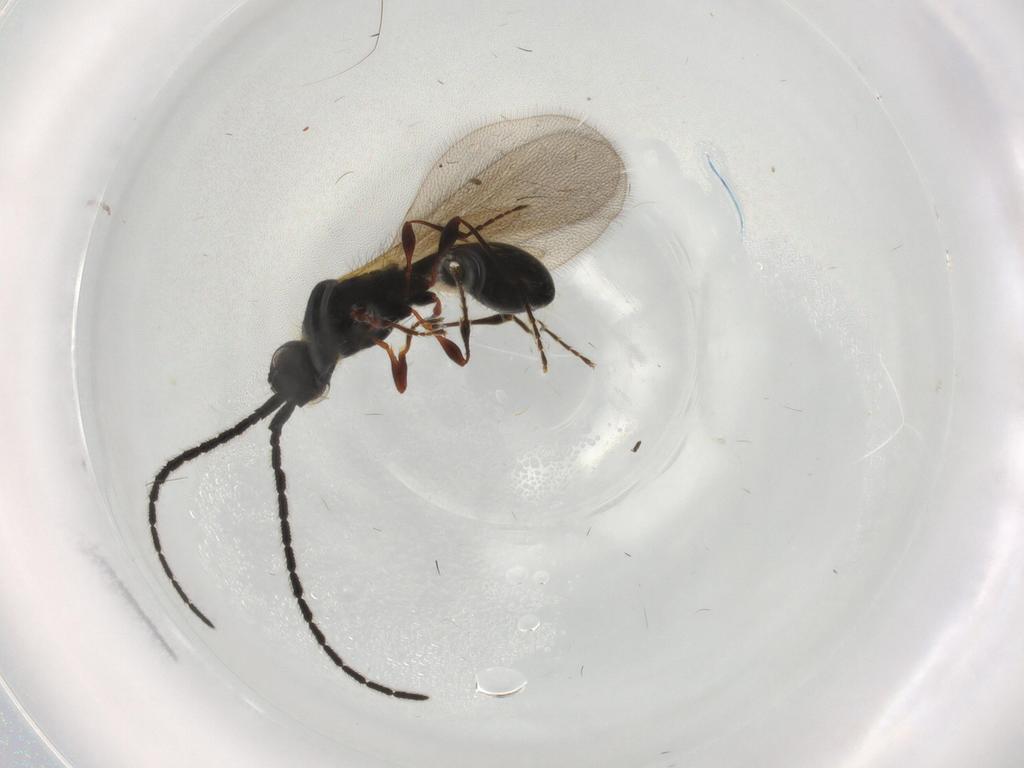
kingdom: Animalia
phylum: Arthropoda
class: Insecta
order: Hymenoptera
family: Diapriidae
